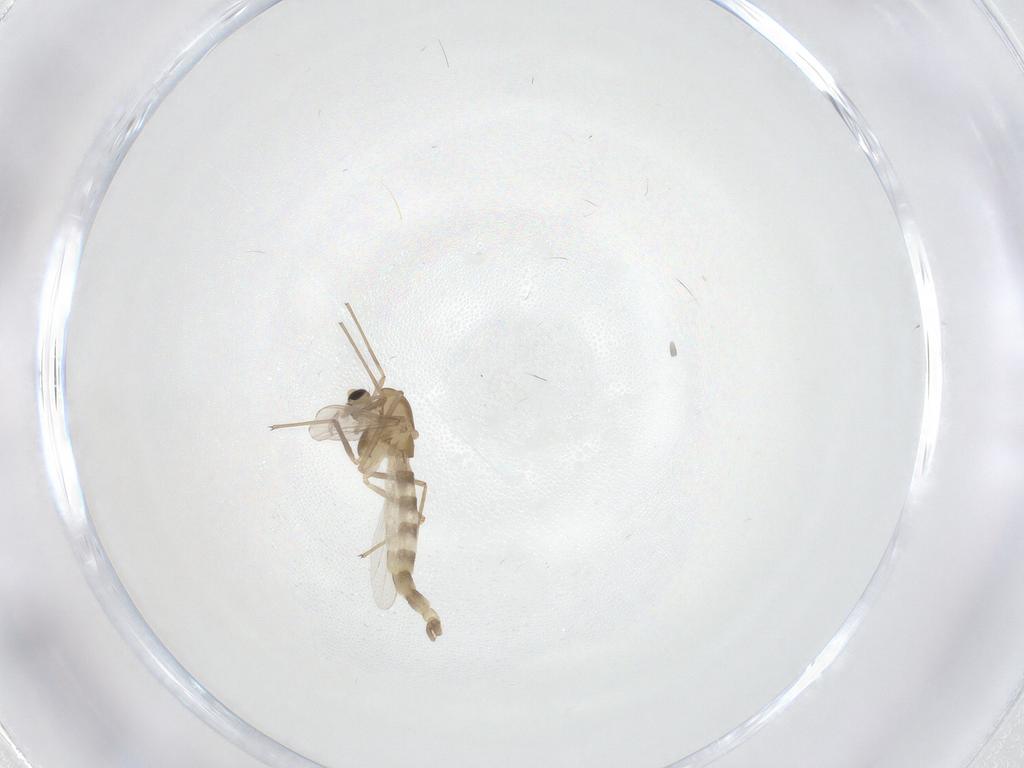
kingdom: Animalia
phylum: Arthropoda
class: Insecta
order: Diptera
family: Chironomidae
